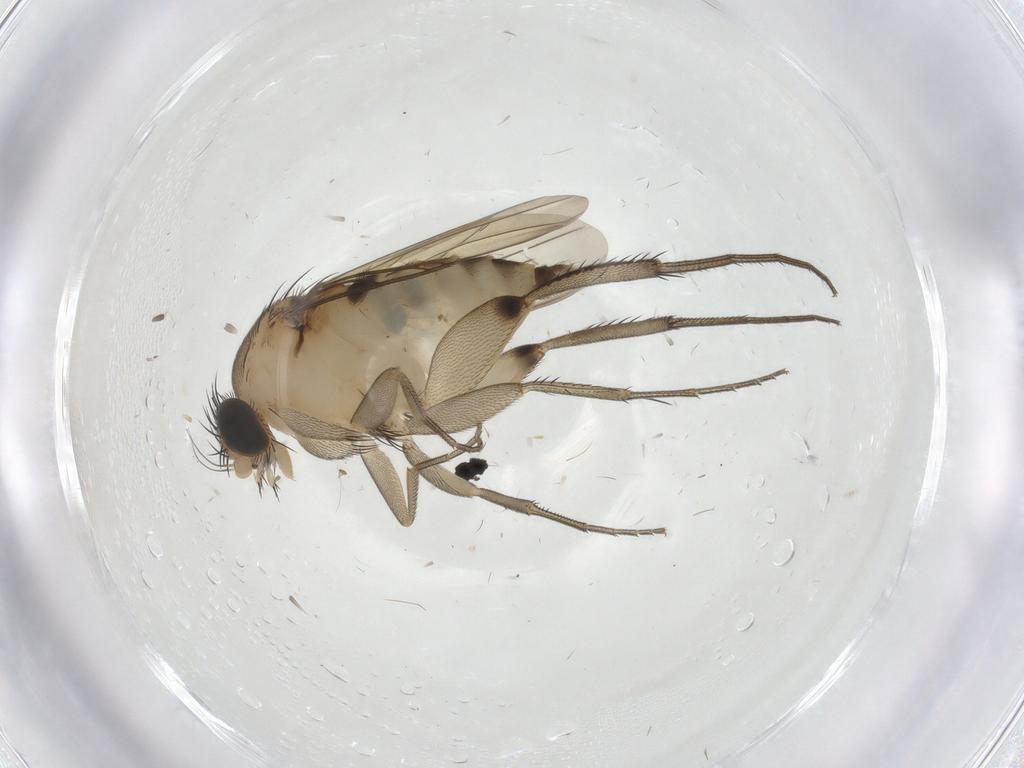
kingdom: Animalia
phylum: Arthropoda
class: Insecta
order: Diptera
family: Phoridae
